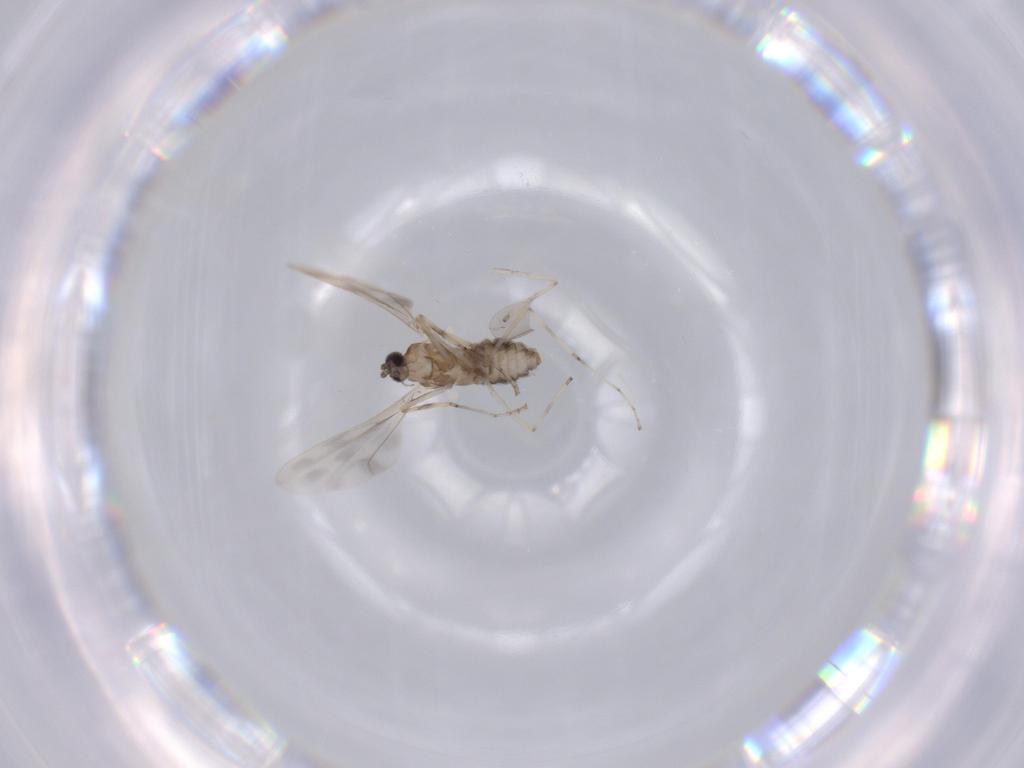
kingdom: Animalia
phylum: Arthropoda
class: Insecta
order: Diptera
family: Sciaridae
